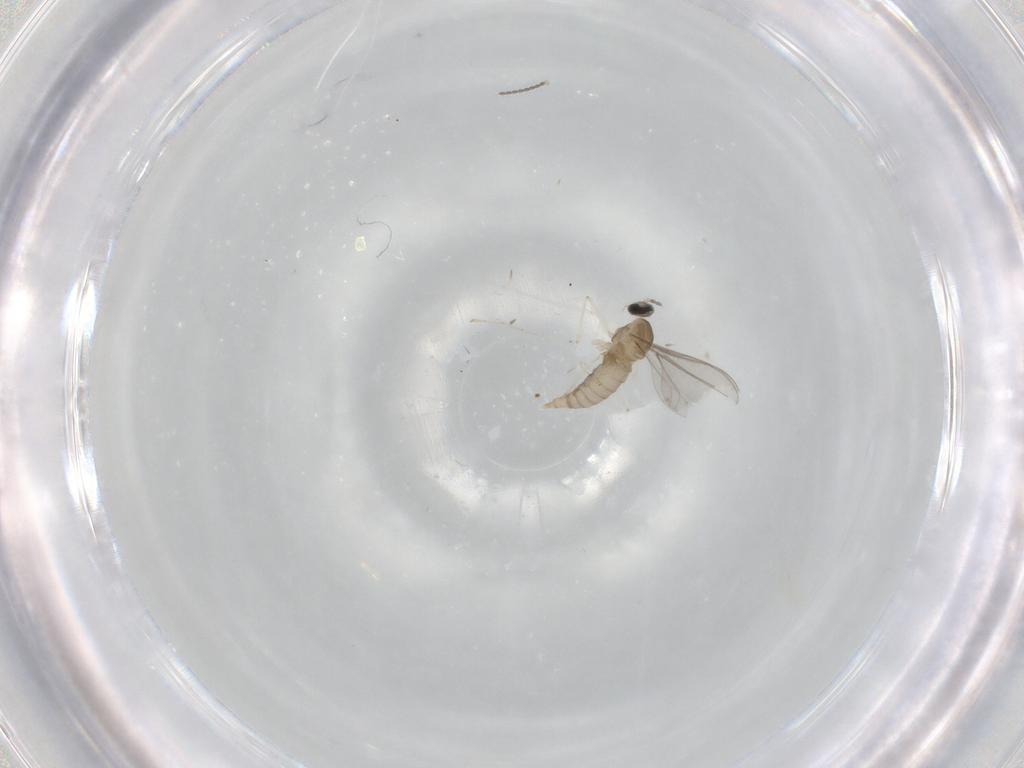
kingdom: Animalia
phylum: Arthropoda
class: Insecta
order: Diptera
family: Cecidomyiidae
